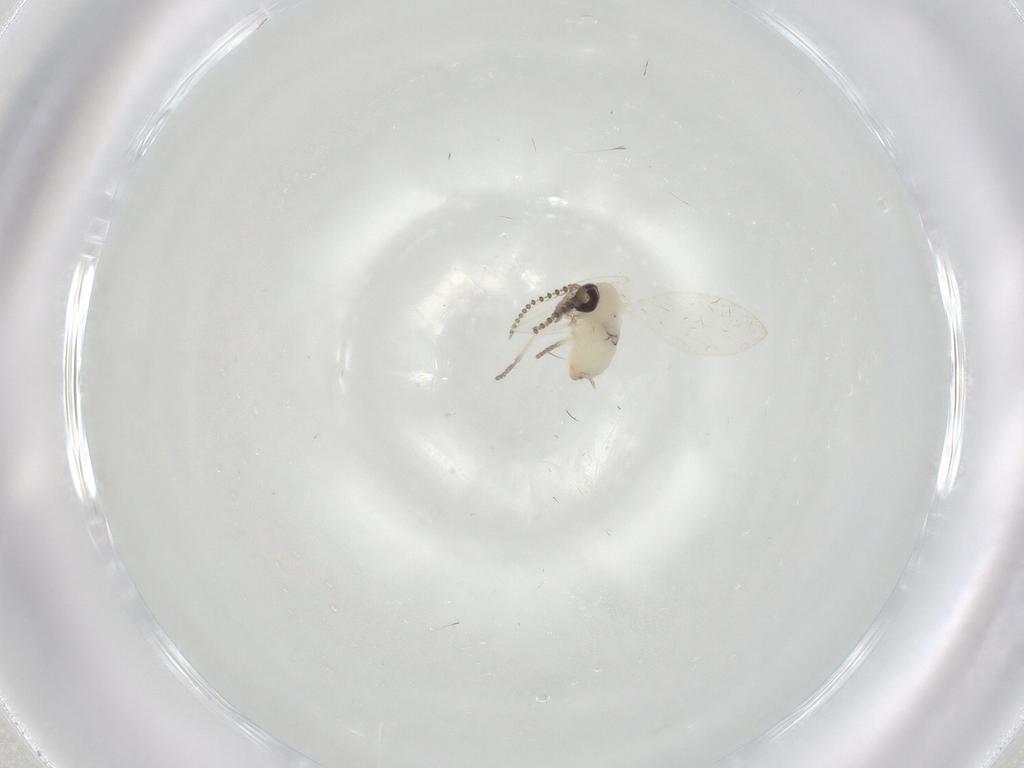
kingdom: Animalia
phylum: Arthropoda
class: Insecta
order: Diptera
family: Psychodidae
